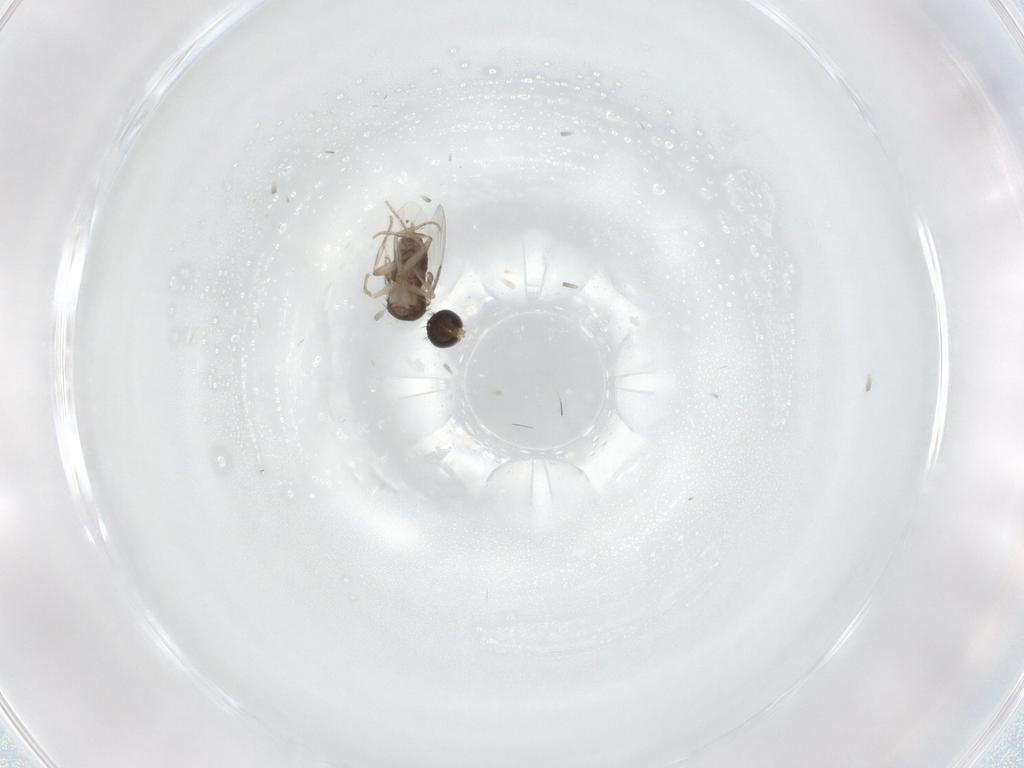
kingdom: Animalia
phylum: Arthropoda
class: Insecta
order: Diptera
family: Phoridae
